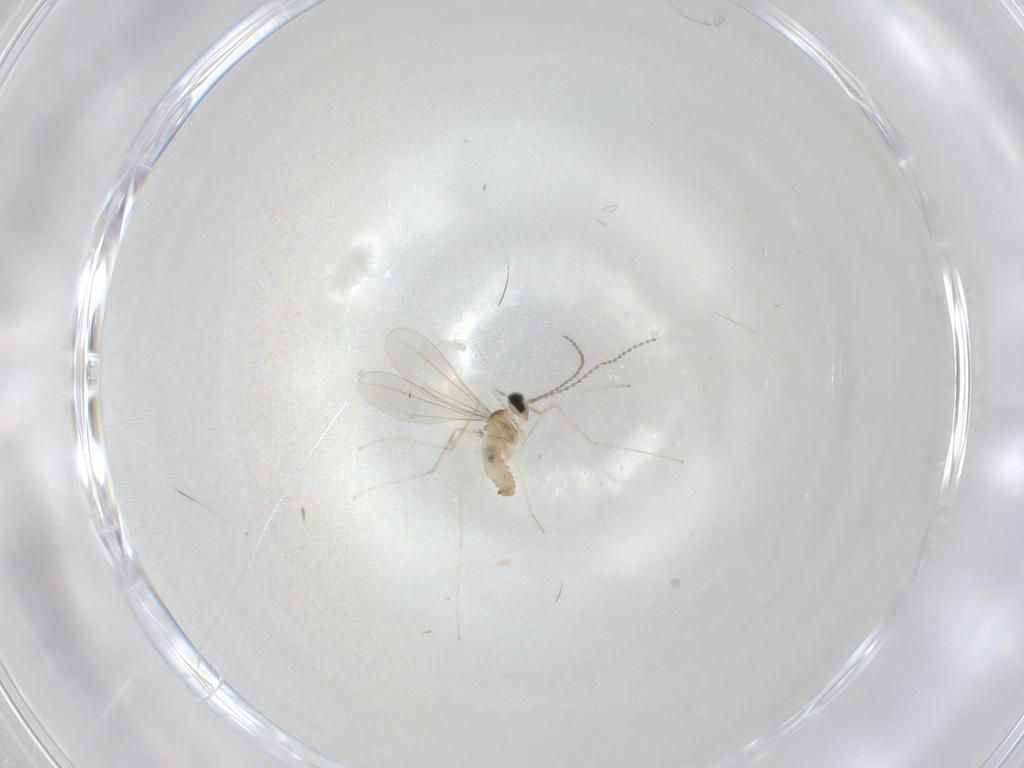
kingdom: Animalia
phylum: Arthropoda
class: Insecta
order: Diptera
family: Cecidomyiidae
